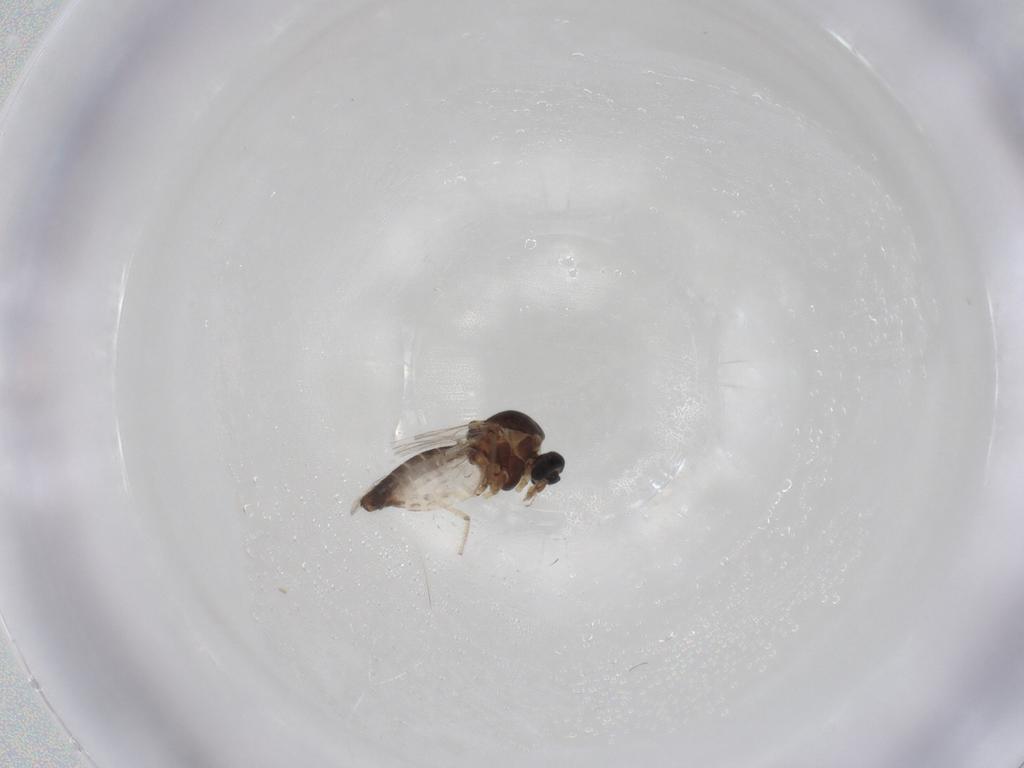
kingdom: Animalia
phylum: Arthropoda
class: Insecta
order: Diptera
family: Ceratopogonidae
